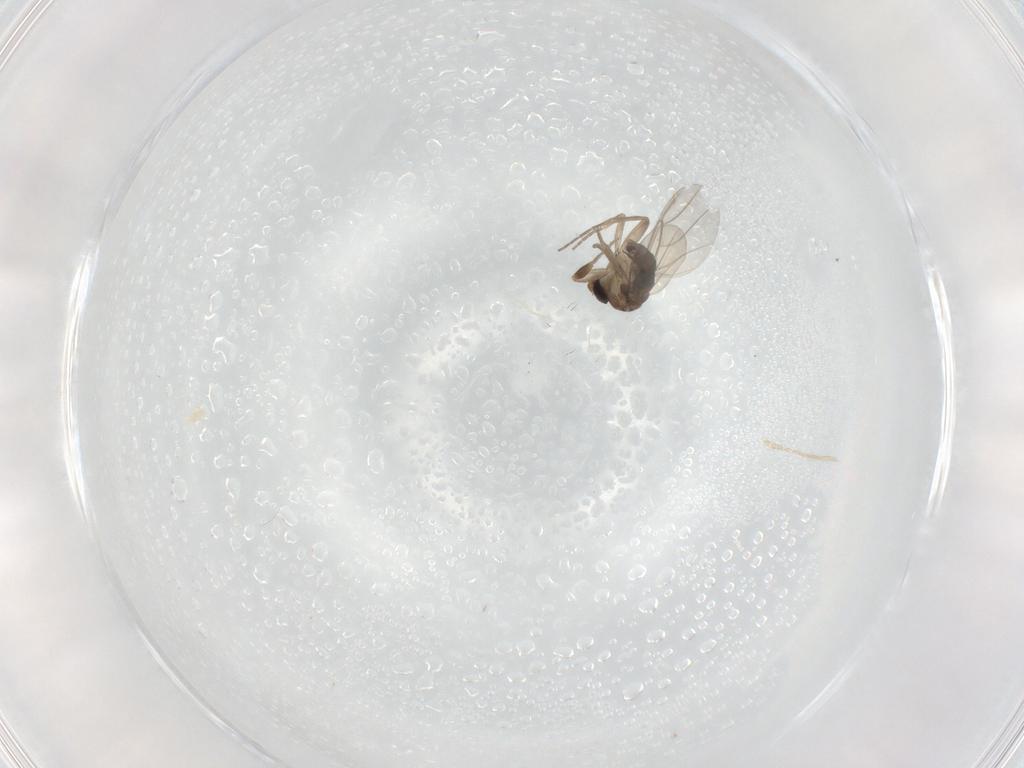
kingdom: Animalia
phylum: Arthropoda
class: Insecta
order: Diptera
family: Phoridae
